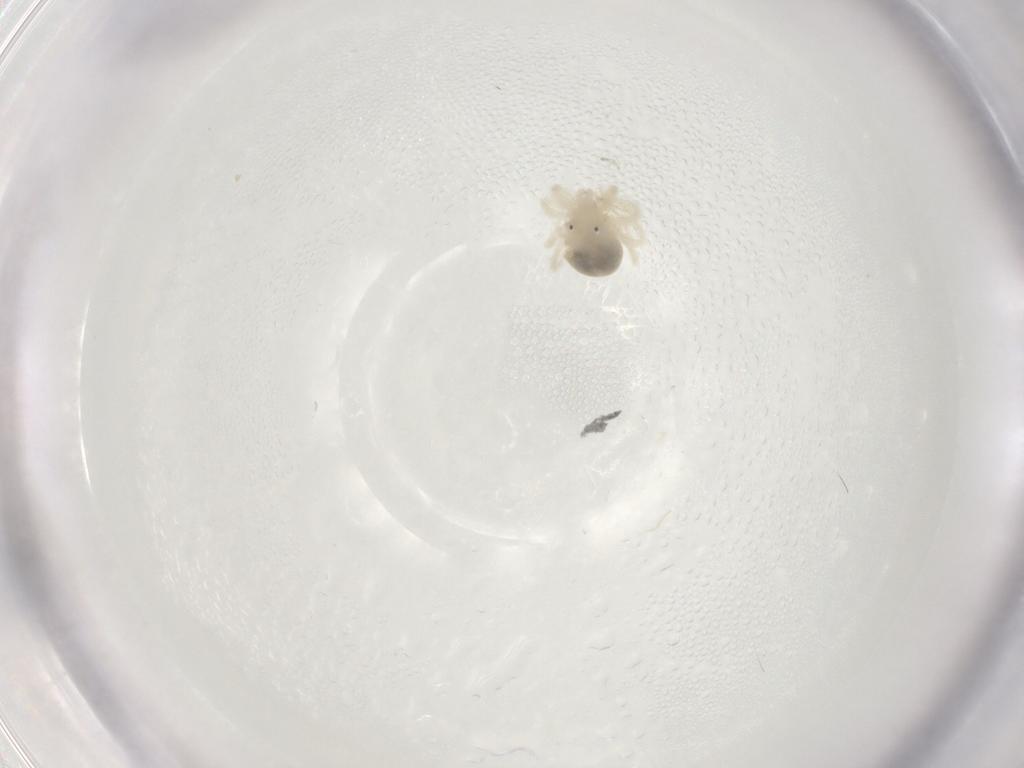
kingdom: Animalia
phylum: Arthropoda
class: Arachnida
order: Trombidiformes
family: Anystidae
